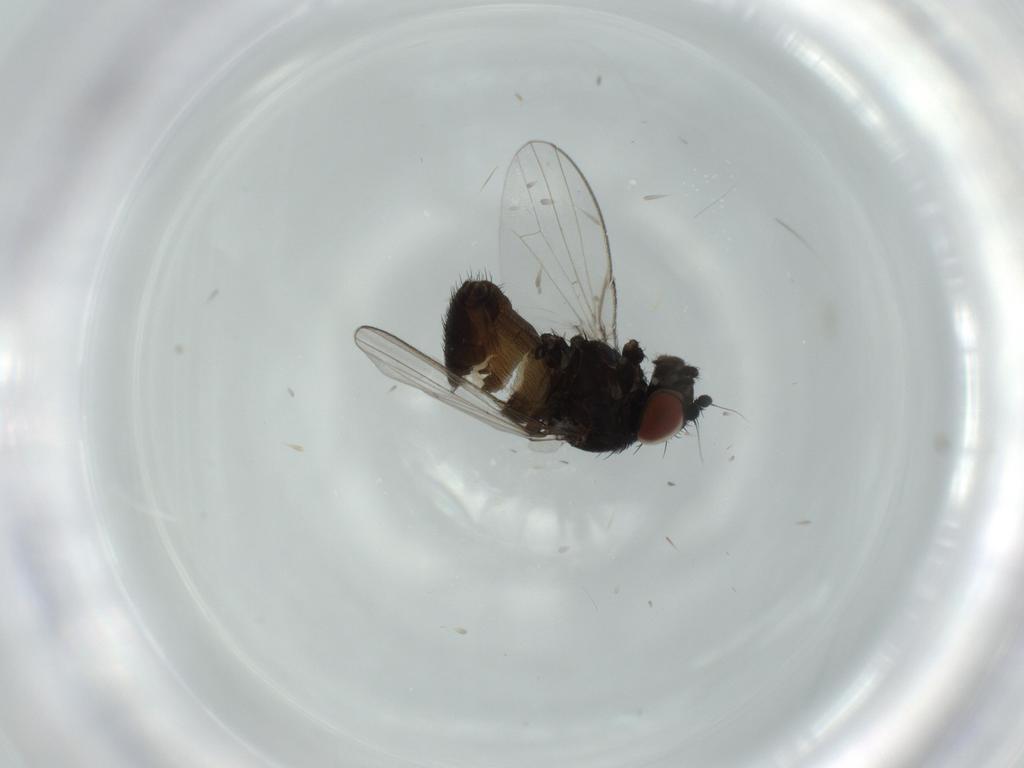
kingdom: Animalia
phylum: Arthropoda
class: Insecta
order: Diptera
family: Milichiidae
